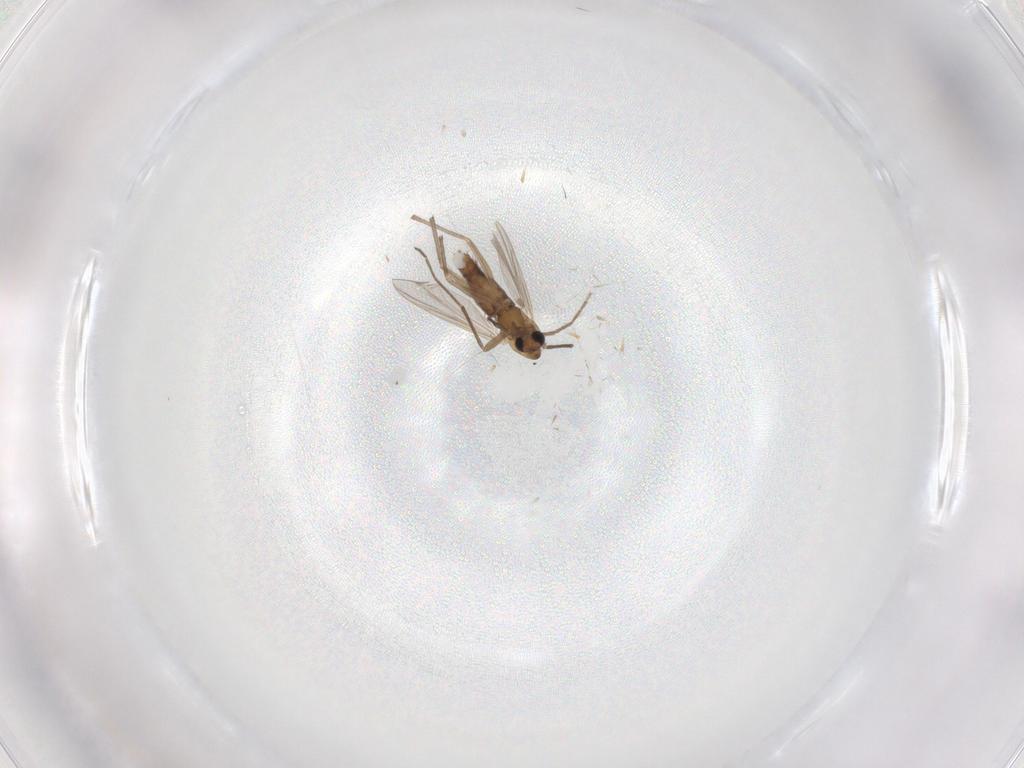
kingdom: Animalia
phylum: Arthropoda
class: Insecta
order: Diptera
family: Chironomidae
